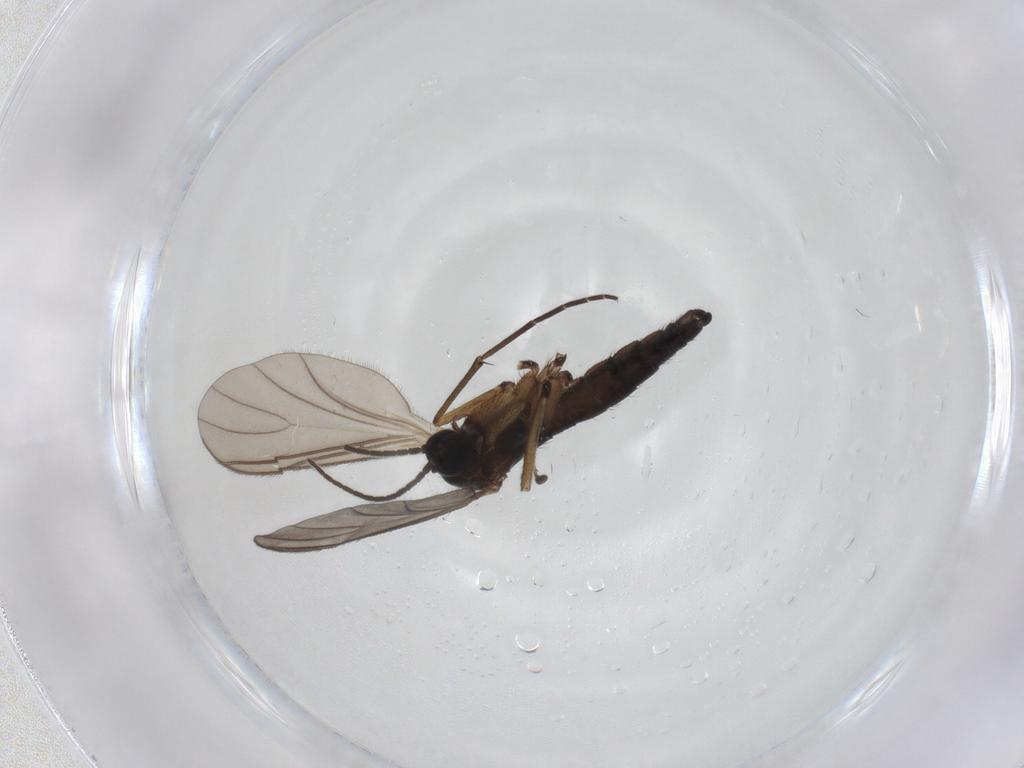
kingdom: Animalia
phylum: Arthropoda
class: Insecta
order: Diptera
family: Sciaridae
